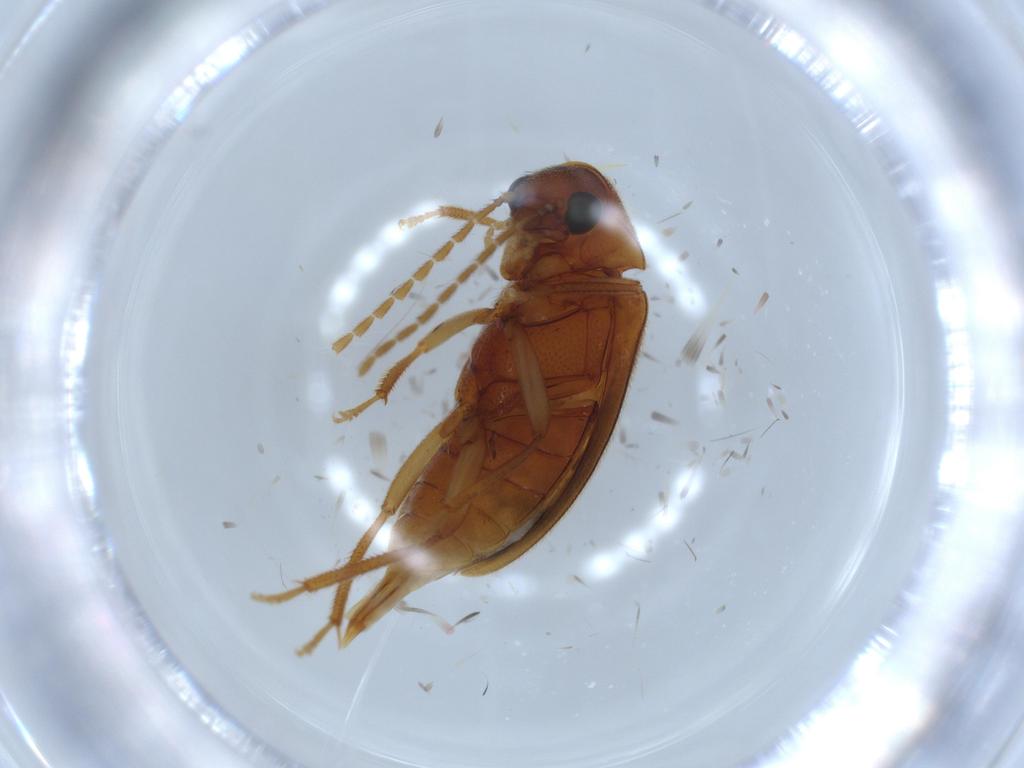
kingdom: Animalia
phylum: Arthropoda
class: Insecta
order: Coleoptera
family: Ptilodactylidae
